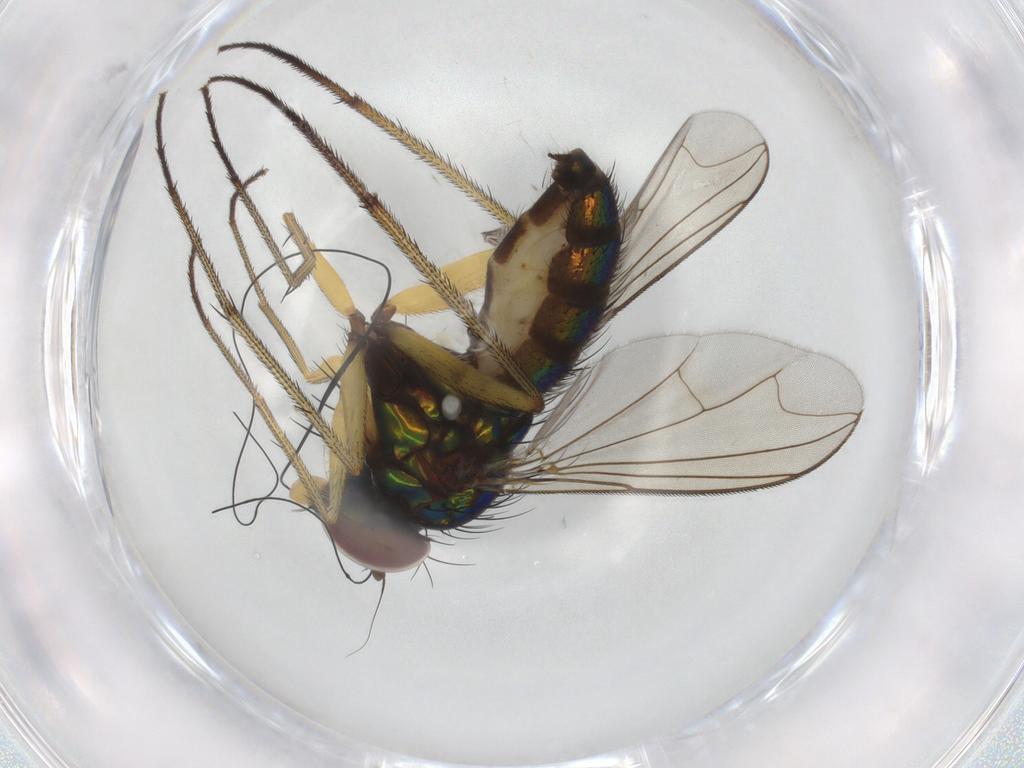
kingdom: Animalia
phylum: Arthropoda
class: Insecta
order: Diptera
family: Chironomidae
